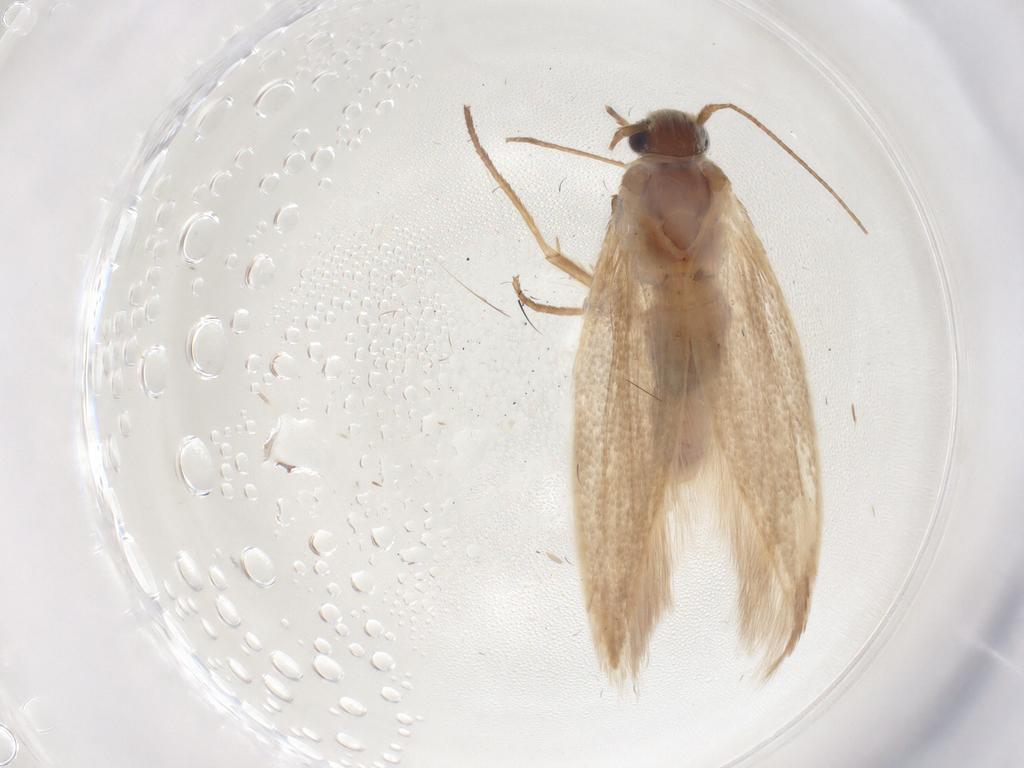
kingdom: Animalia
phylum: Arthropoda
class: Insecta
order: Lepidoptera
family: Scythrididae
